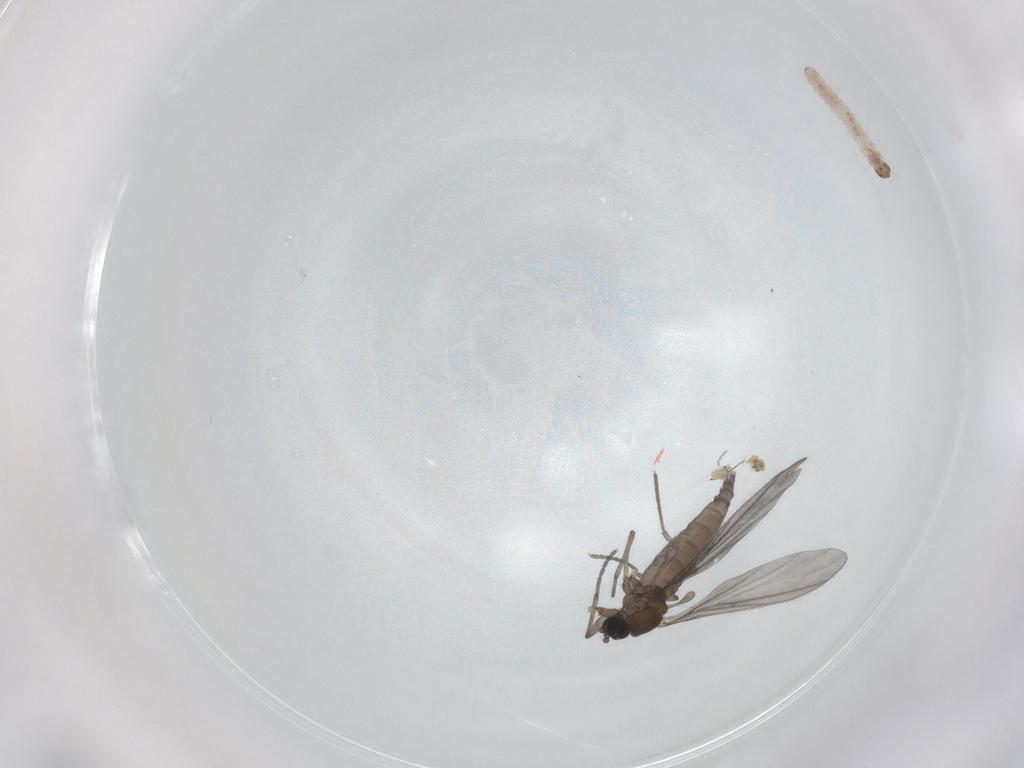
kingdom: Animalia
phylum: Arthropoda
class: Insecta
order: Diptera
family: Sciaridae
